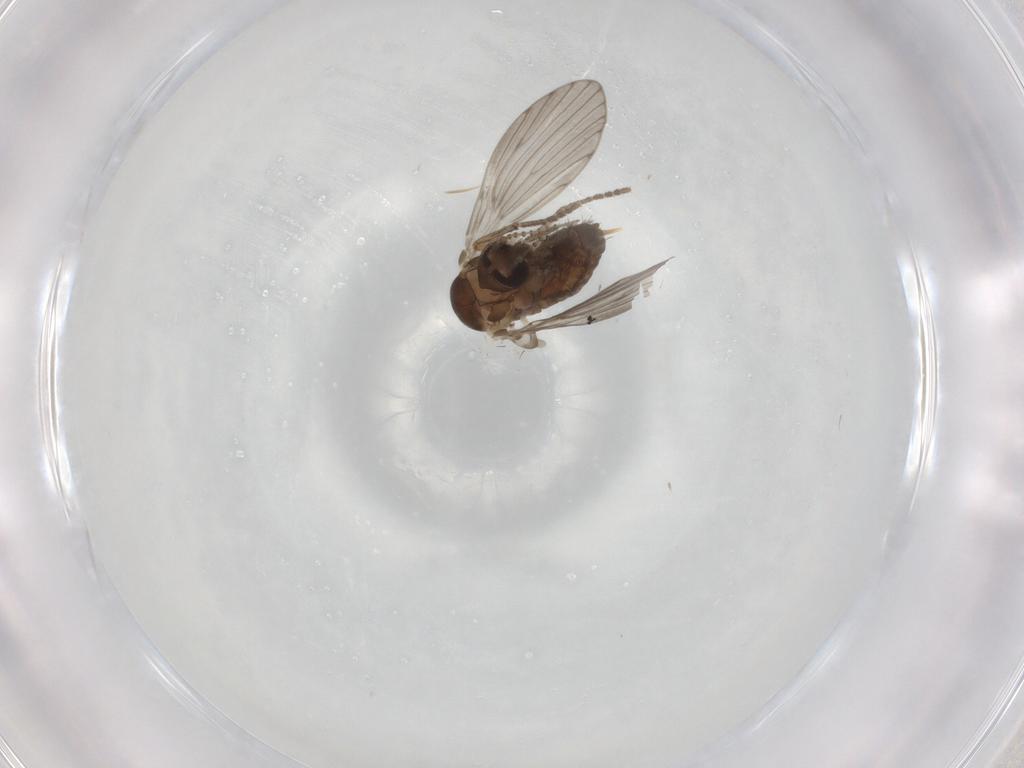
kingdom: Animalia
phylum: Arthropoda
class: Insecta
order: Diptera
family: Psychodidae
